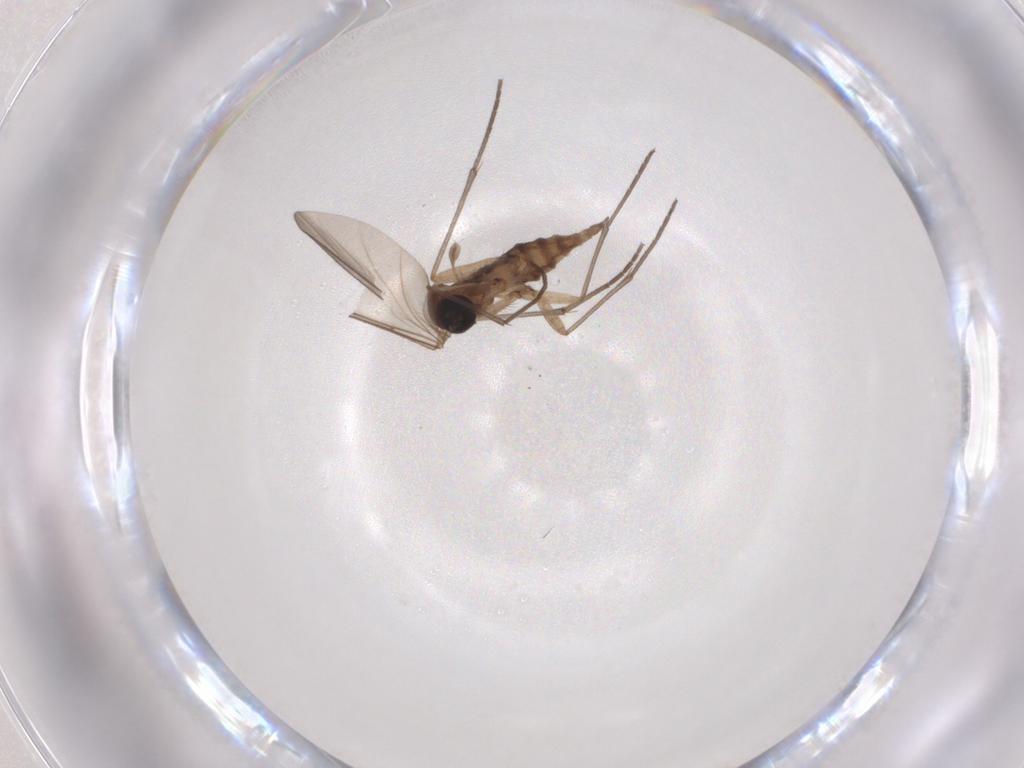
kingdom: Animalia
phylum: Arthropoda
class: Insecta
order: Diptera
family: Sciaridae
